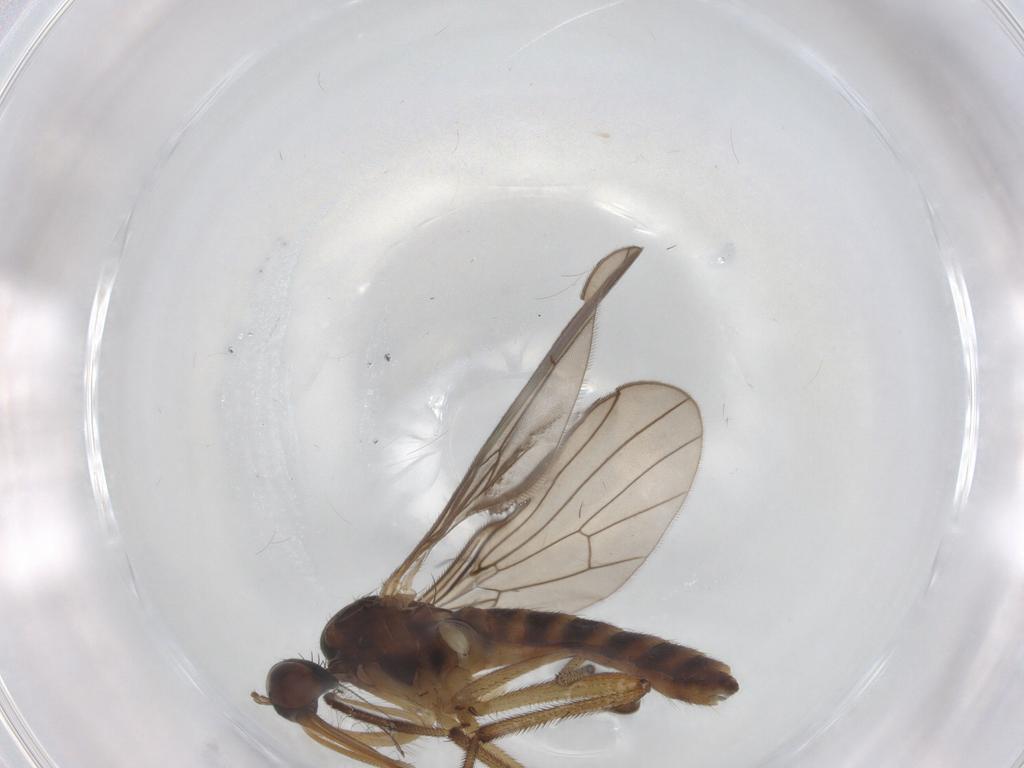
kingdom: Animalia
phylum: Arthropoda
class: Insecta
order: Diptera
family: Empididae
